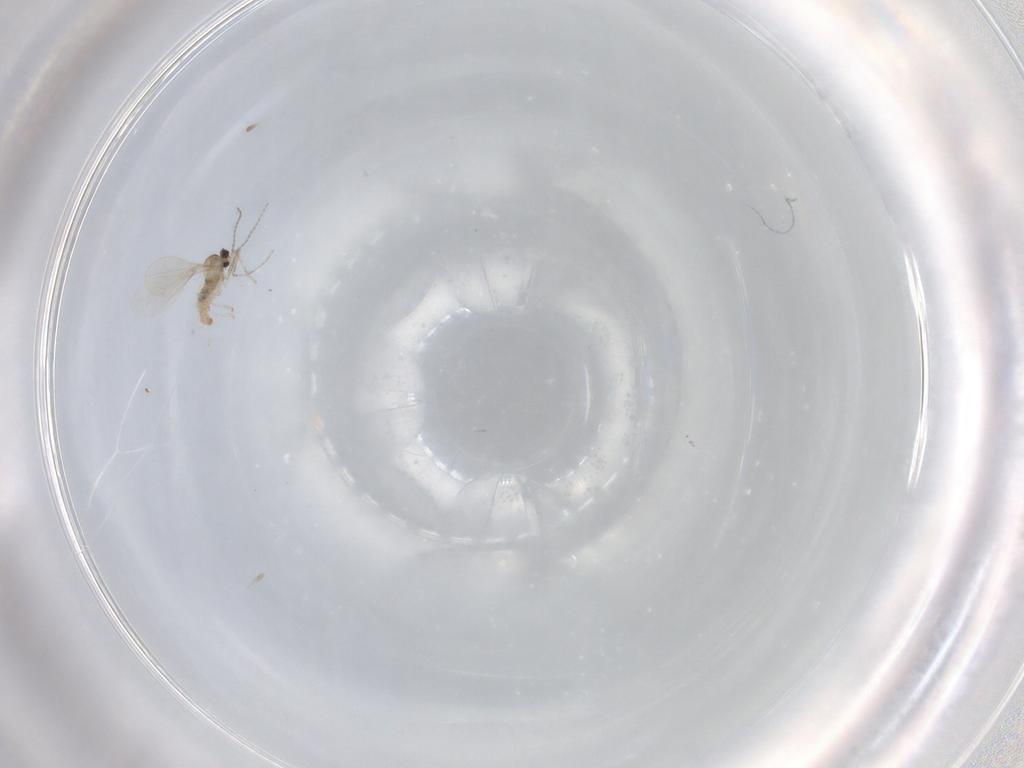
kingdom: Animalia
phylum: Arthropoda
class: Insecta
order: Diptera
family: Cecidomyiidae
